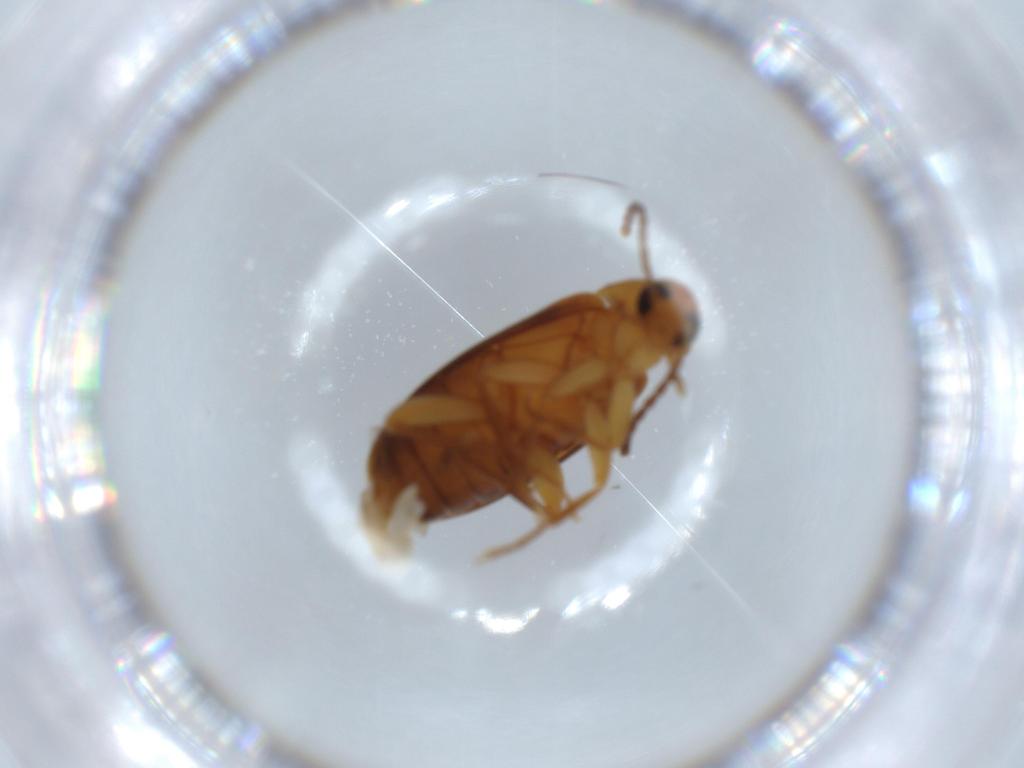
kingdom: Animalia
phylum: Arthropoda
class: Insecta
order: Coleoptera
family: Scraptiidae
